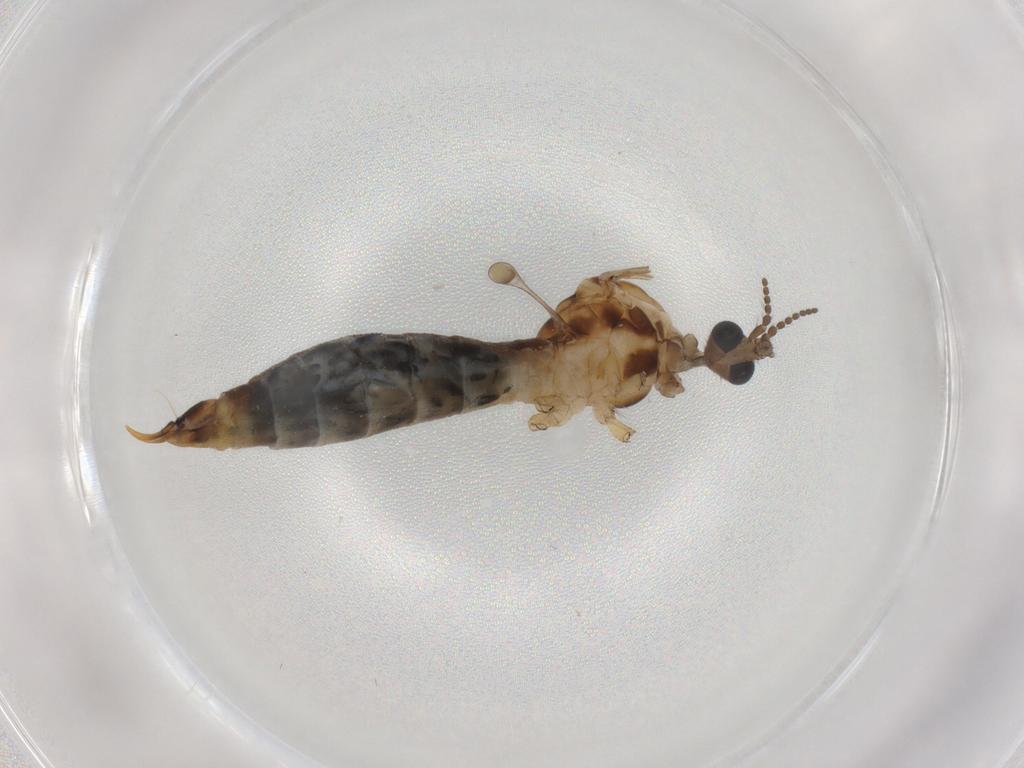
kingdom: Animalia
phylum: Arthropoda
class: Insecta
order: Diptera
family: Limoniidae
